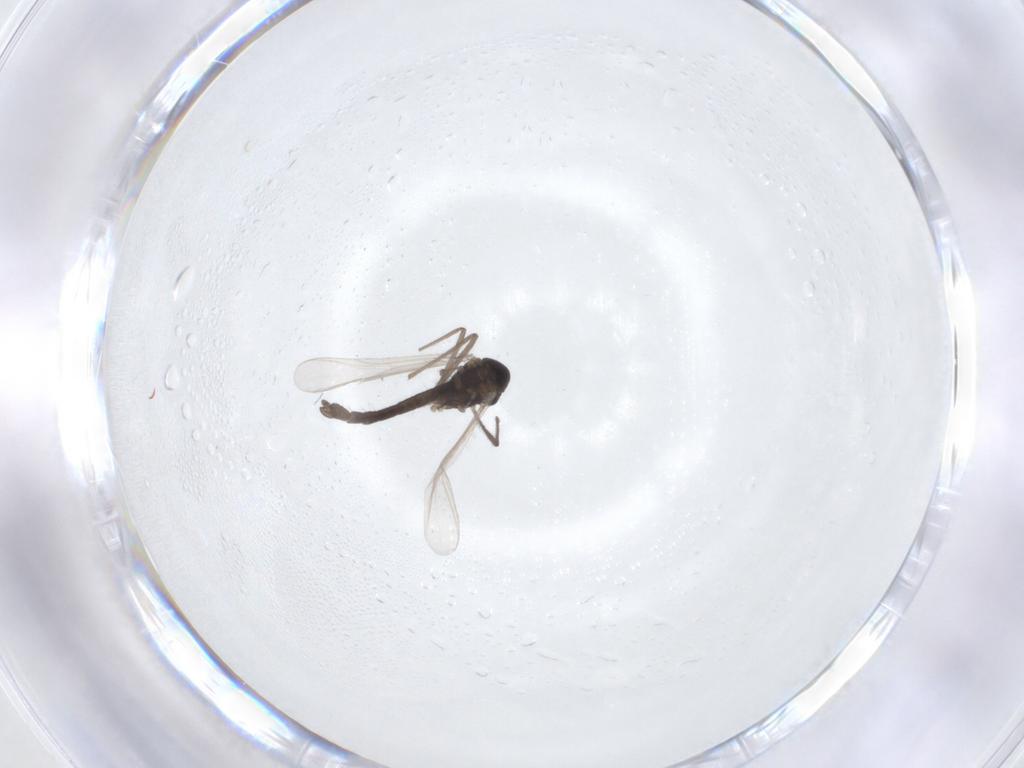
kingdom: Animalia
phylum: Arthropoda
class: Insecta
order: Diptera
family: Chironomidae
